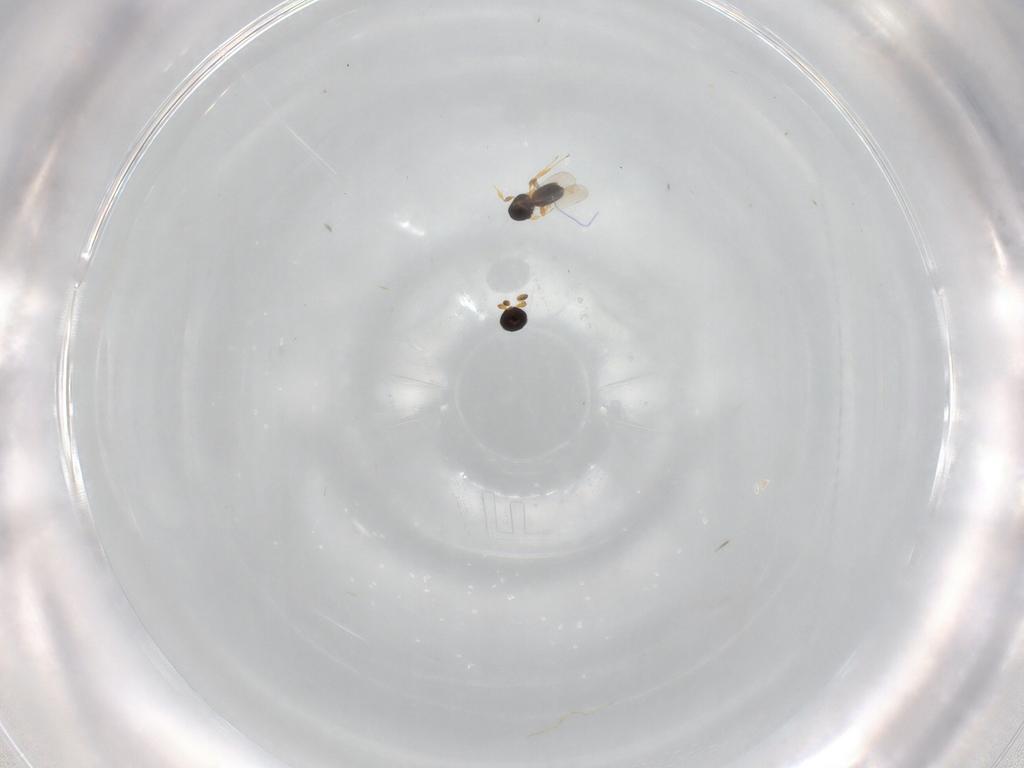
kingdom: Animalia
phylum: Arthropoda
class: Insecta
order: Hymenoptera
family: Platygastridae
